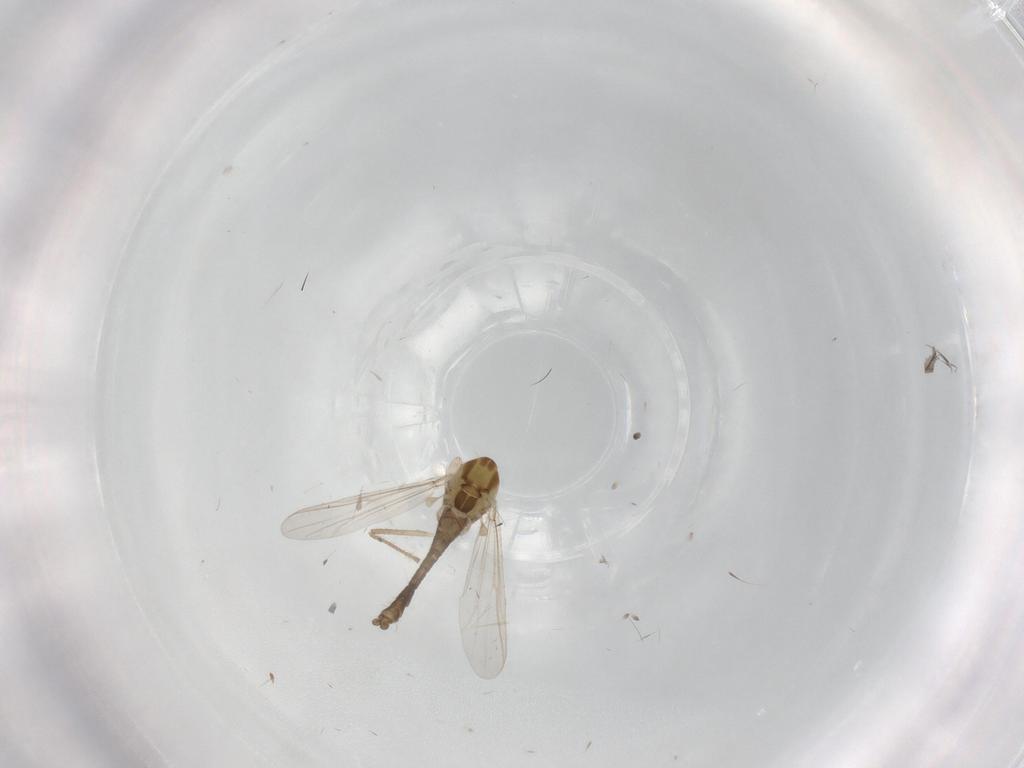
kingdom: Animalia
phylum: Arthropoda
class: Insecta
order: Diptera
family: Chironomidae
